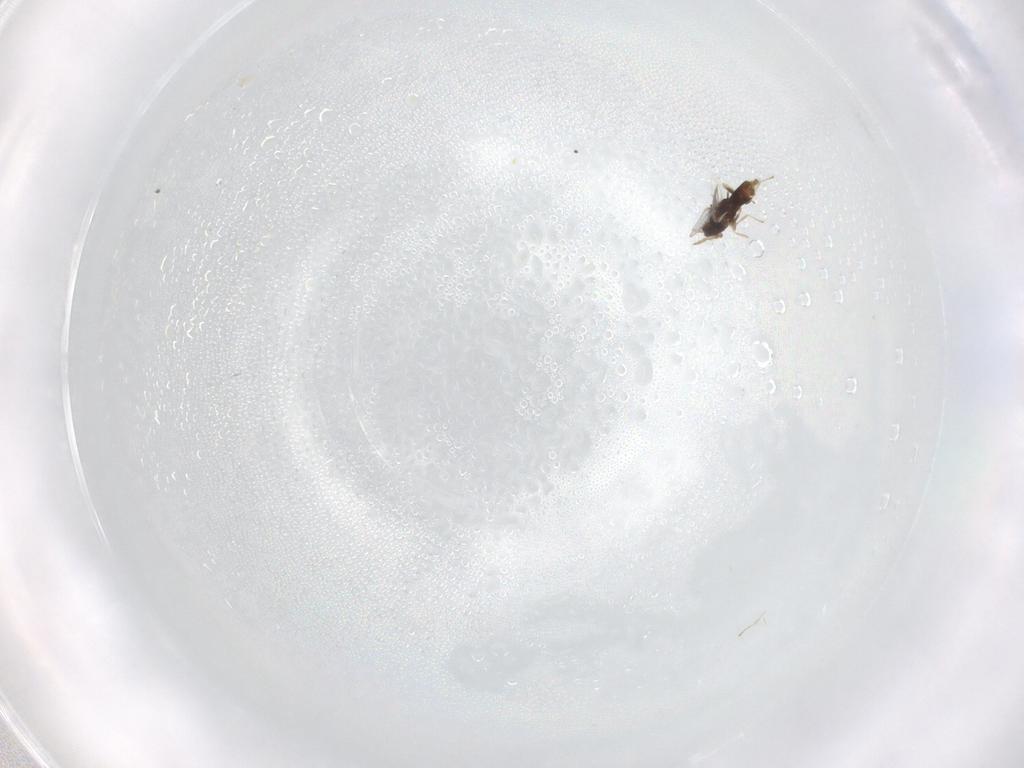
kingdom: Animalia
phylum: Arthropoda
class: Insecta
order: Hymenoptera
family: Eulophidae
